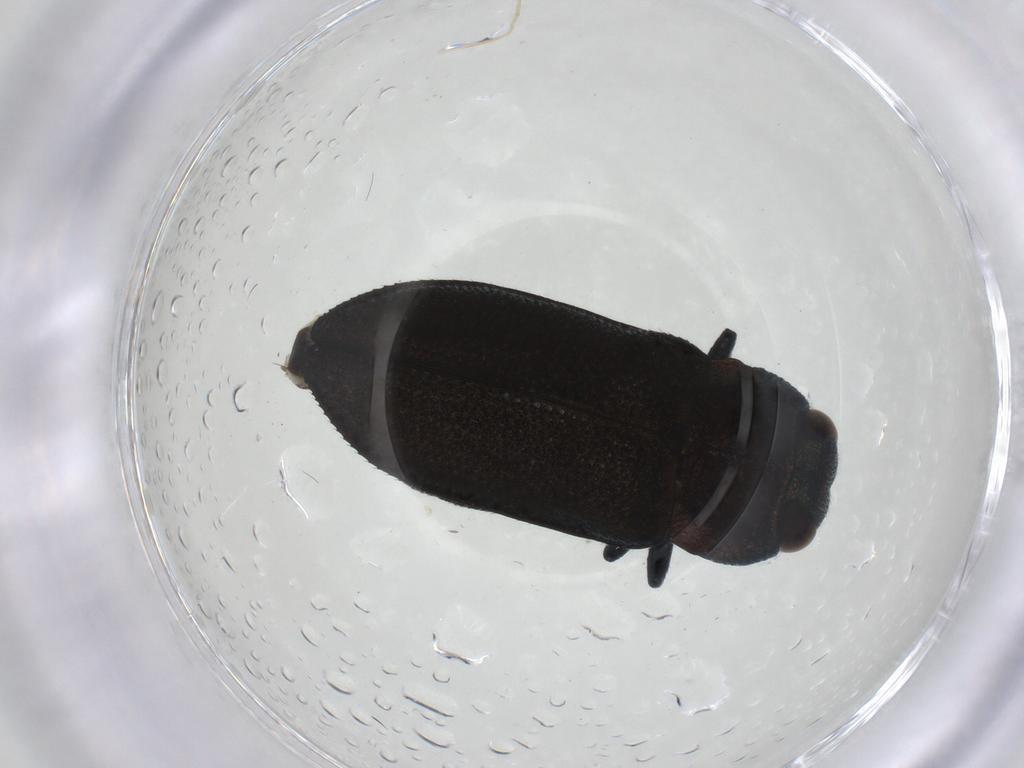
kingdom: Animalia
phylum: Arthropoda
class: Insecta
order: Coleoptera
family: Buprestidae
